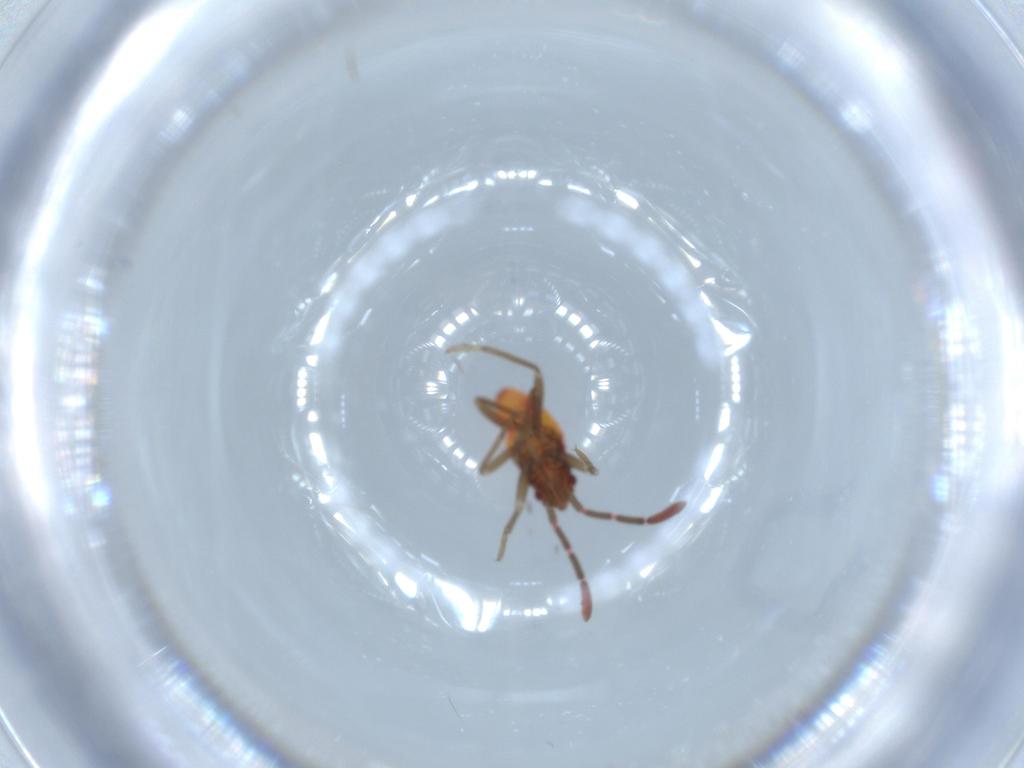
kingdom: Animalia
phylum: Arthropoda
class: Insecta
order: Hemiptera
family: Rhyparochromidae
